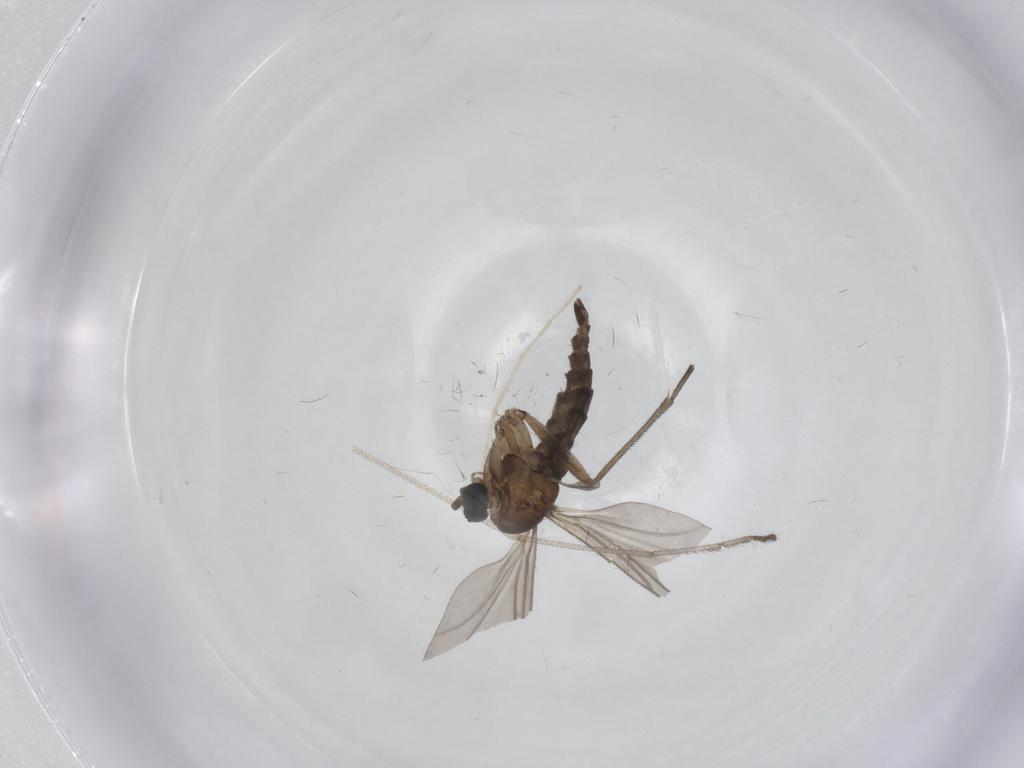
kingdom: Animalia
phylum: Arthropoda
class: Insecta
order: Diptera
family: Sciaridae
